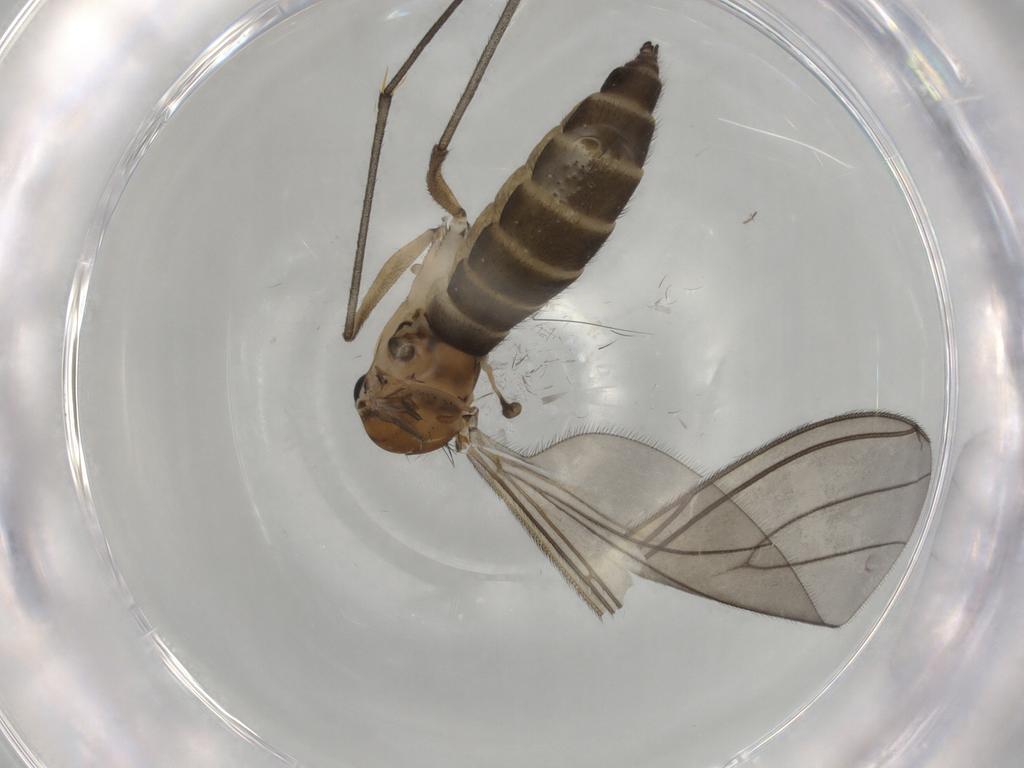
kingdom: Animalia
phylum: Arthropoda
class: Insecta
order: Diptera
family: Sciaridae
